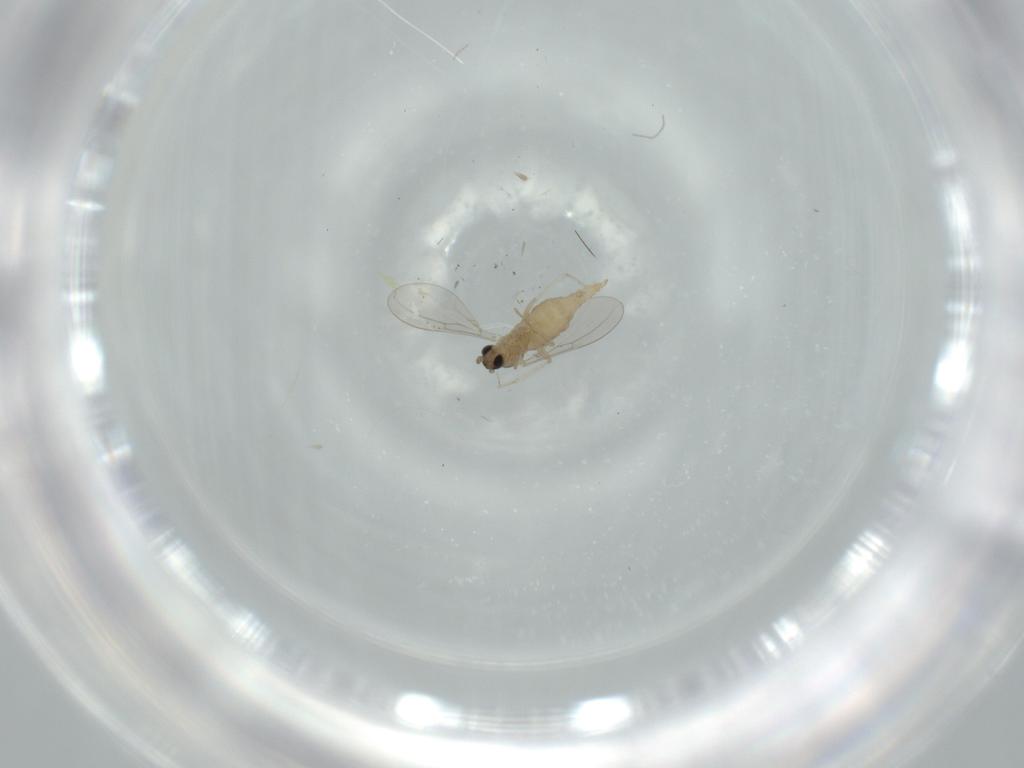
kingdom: Animalia
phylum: Arthropoda
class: Insecta
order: Diptera
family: Cecidomyiidae
